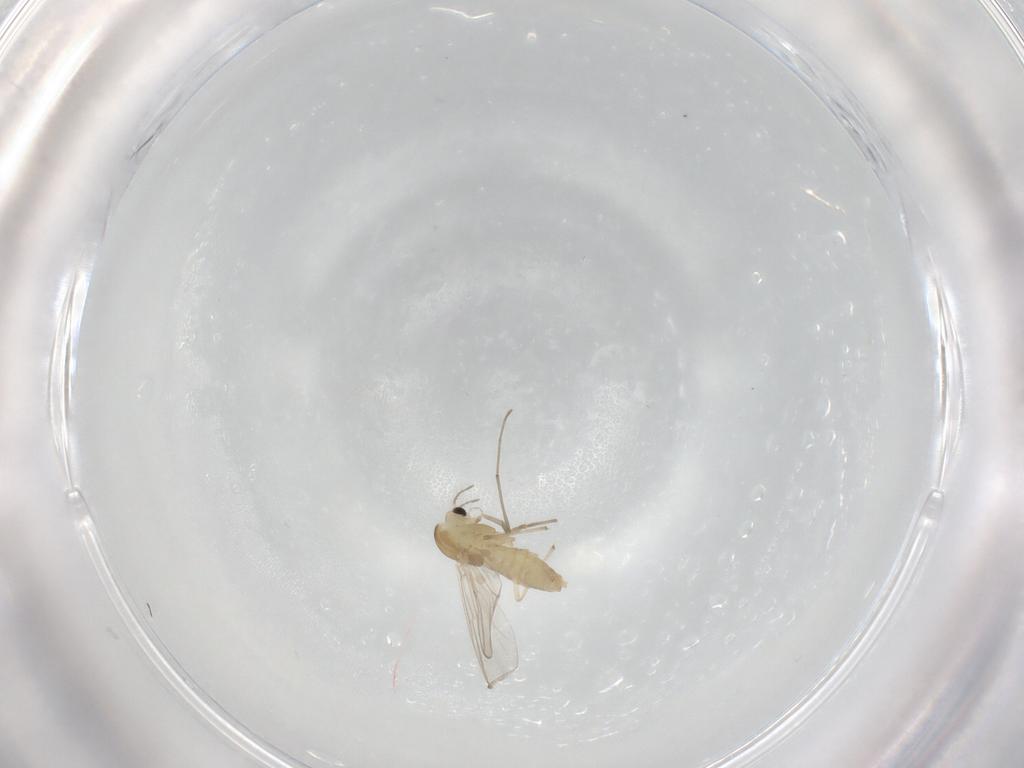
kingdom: Animalia
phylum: Arthropoda
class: Insecta
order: Diptera
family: Chironomidae
